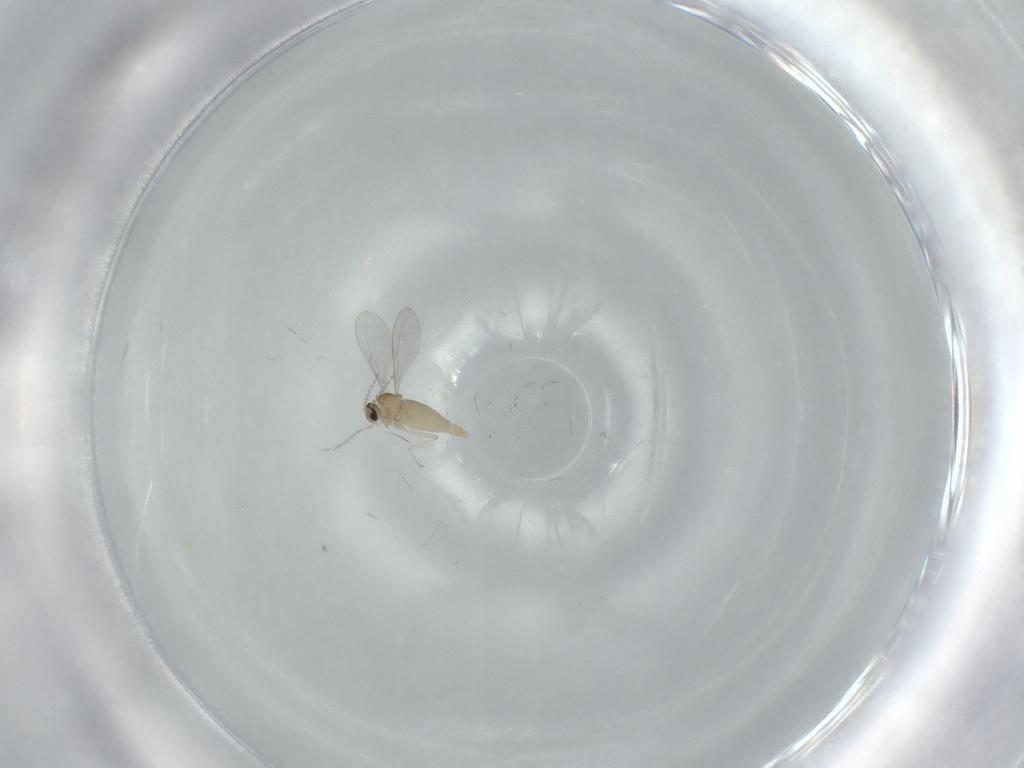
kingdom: Animalia
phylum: Arthropoda
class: Insecta
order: Diptera
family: Cecidomyiidae
